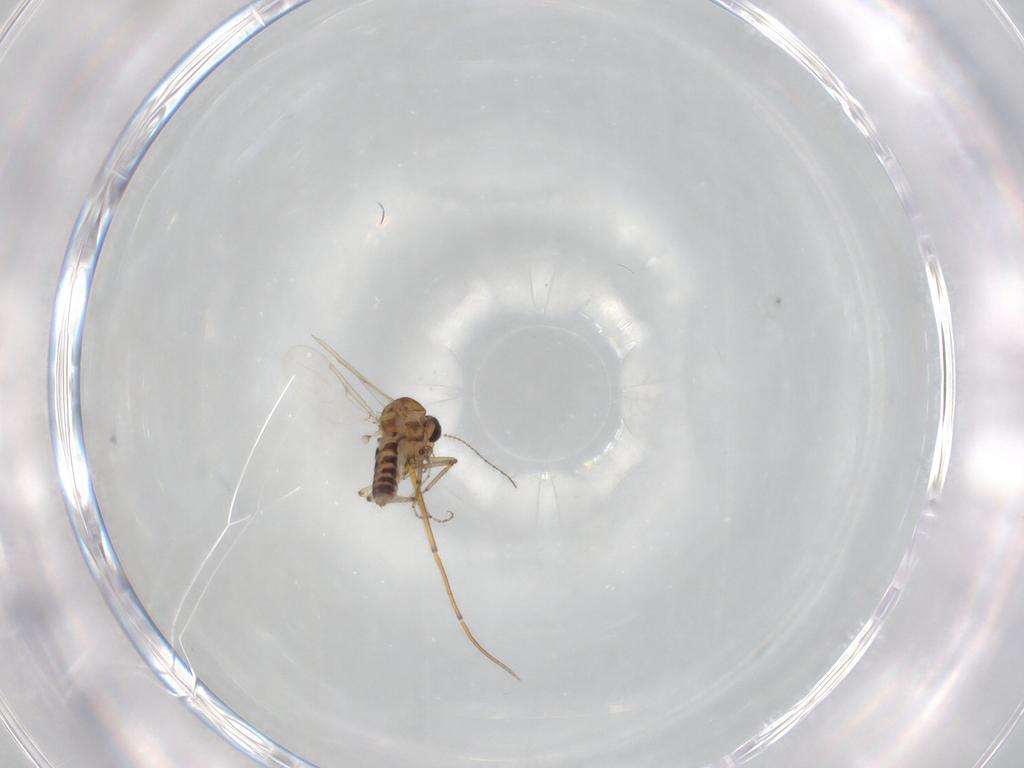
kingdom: Animalia
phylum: Arthropoda
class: Insecta
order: Diptera
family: Ceratopogonidae
